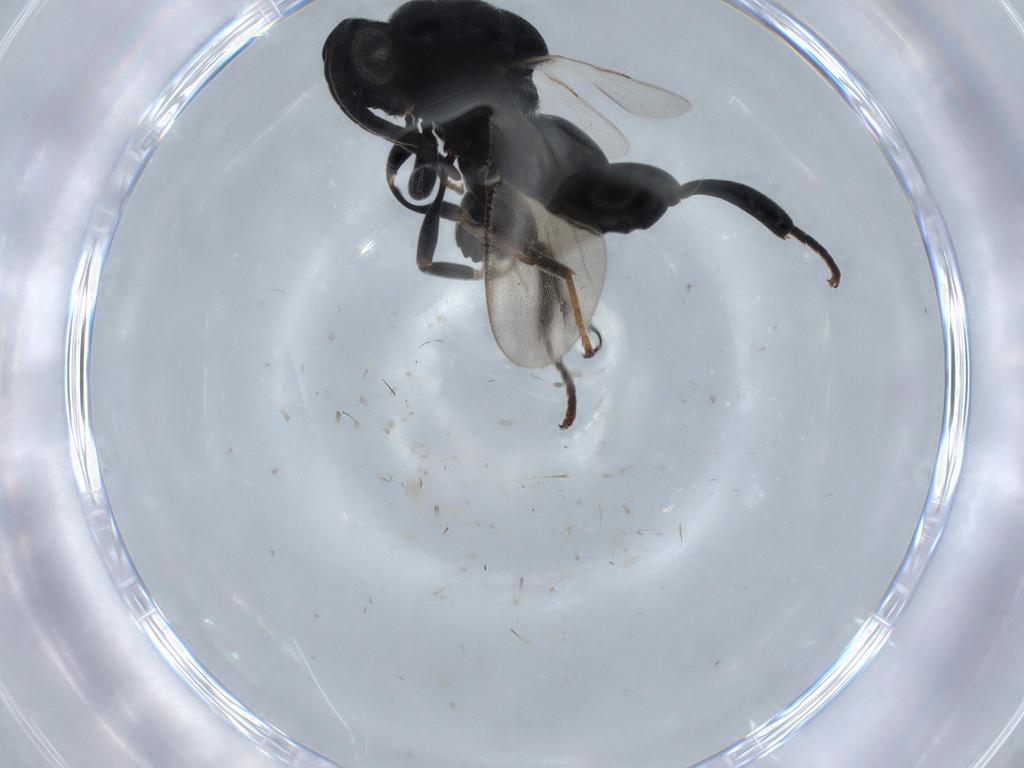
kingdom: Animalia
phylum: Arthropoda
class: Insecta
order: Hymenoptera
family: Chalcididae
